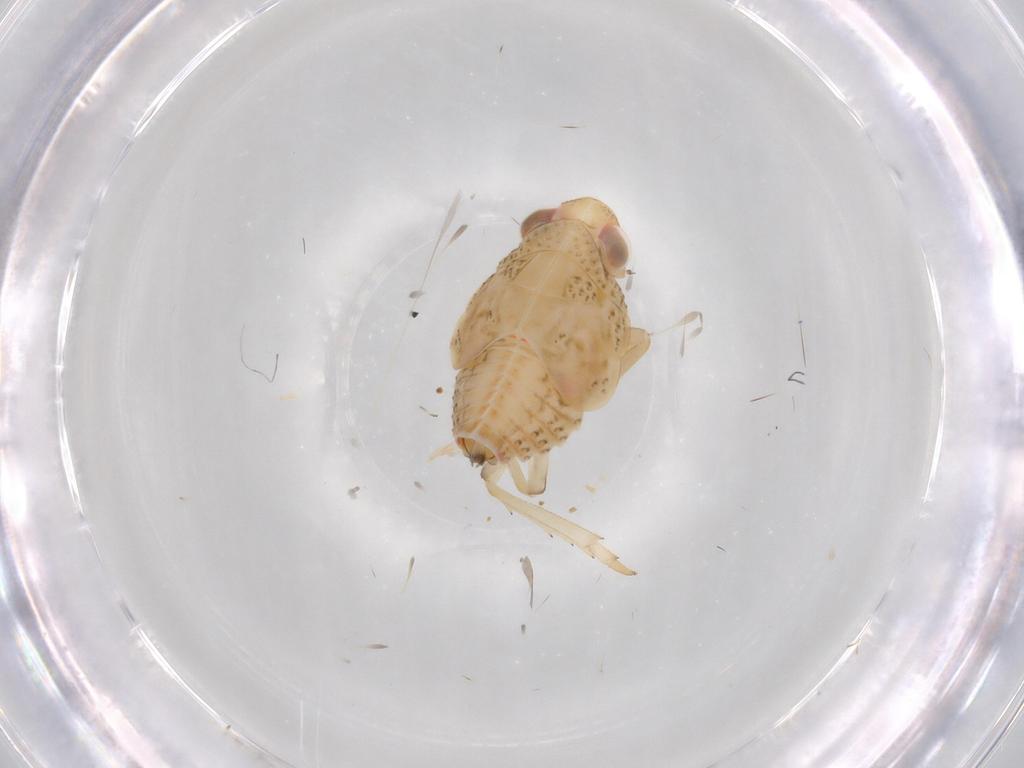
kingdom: Animalia
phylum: Arthropoda
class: Insecta
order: Hemiptera
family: Issidae
